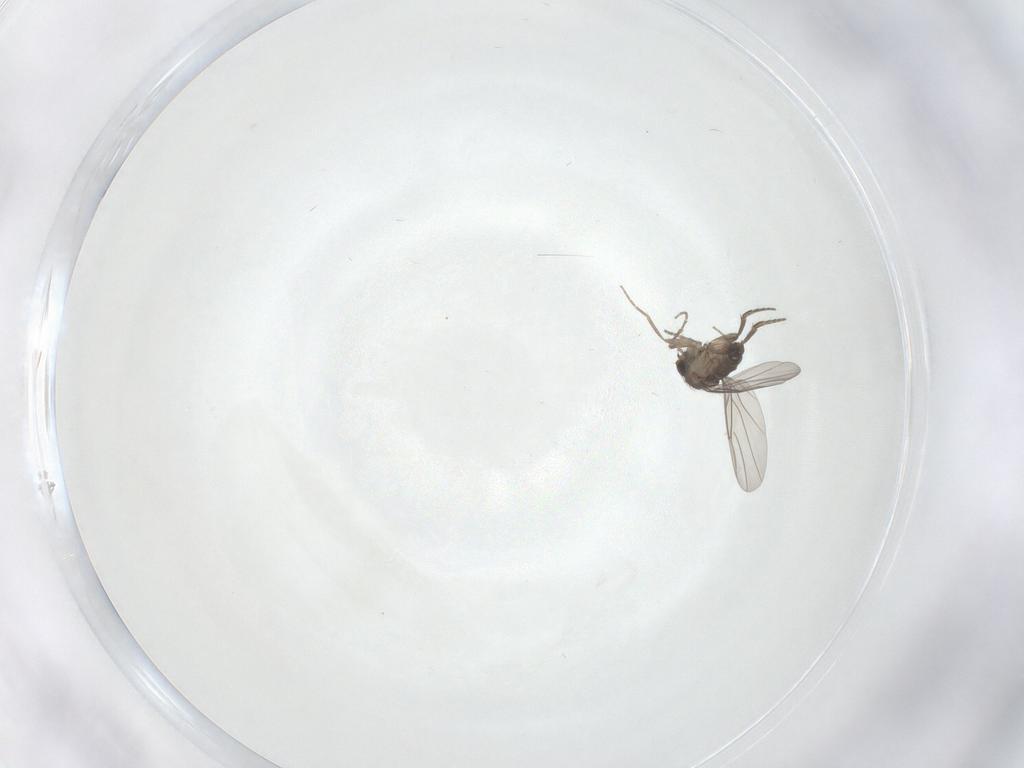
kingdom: Animalia
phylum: Arthropoda
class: Insecta
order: Diptera
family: Phoridae
